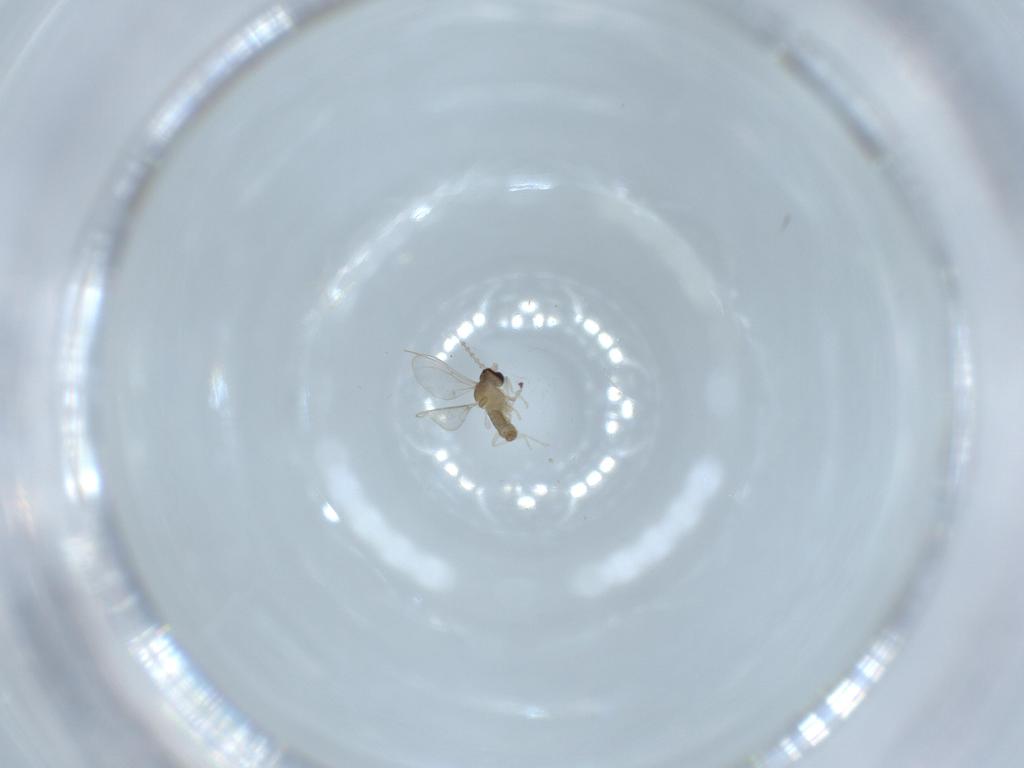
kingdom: Animalia
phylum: Arthropoda
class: Insecta
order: Diptera
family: Cecidomyiidae
